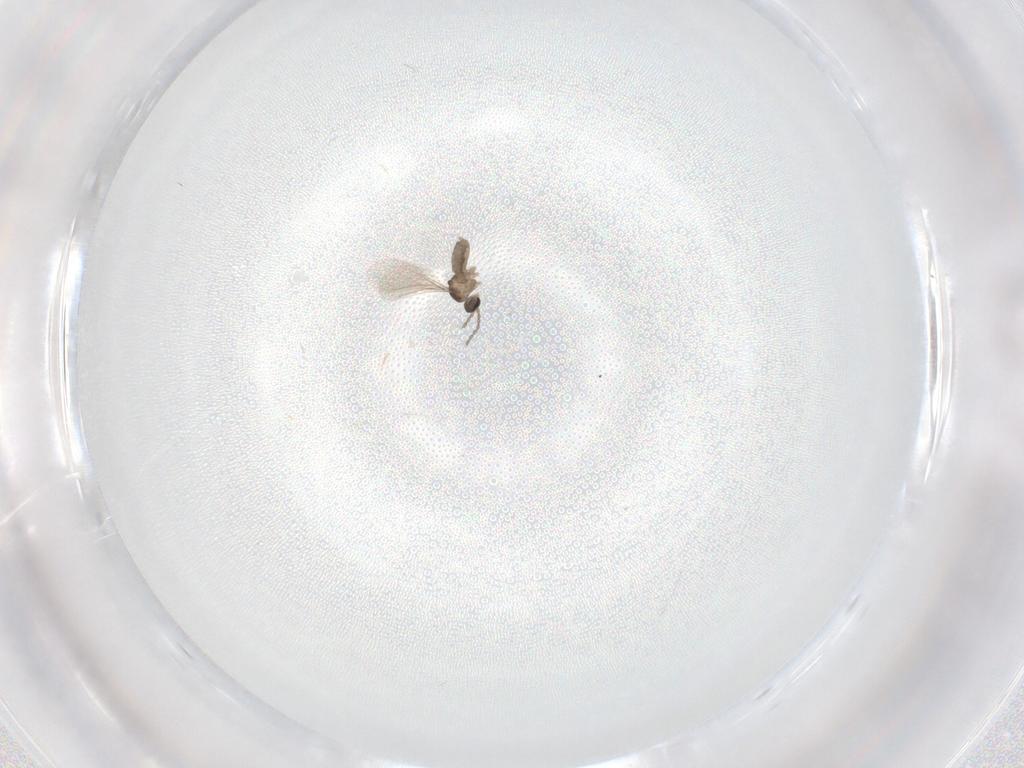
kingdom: Animalia
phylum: Arthropoda
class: Insecta
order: Diptera
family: Cecidomyiidae
